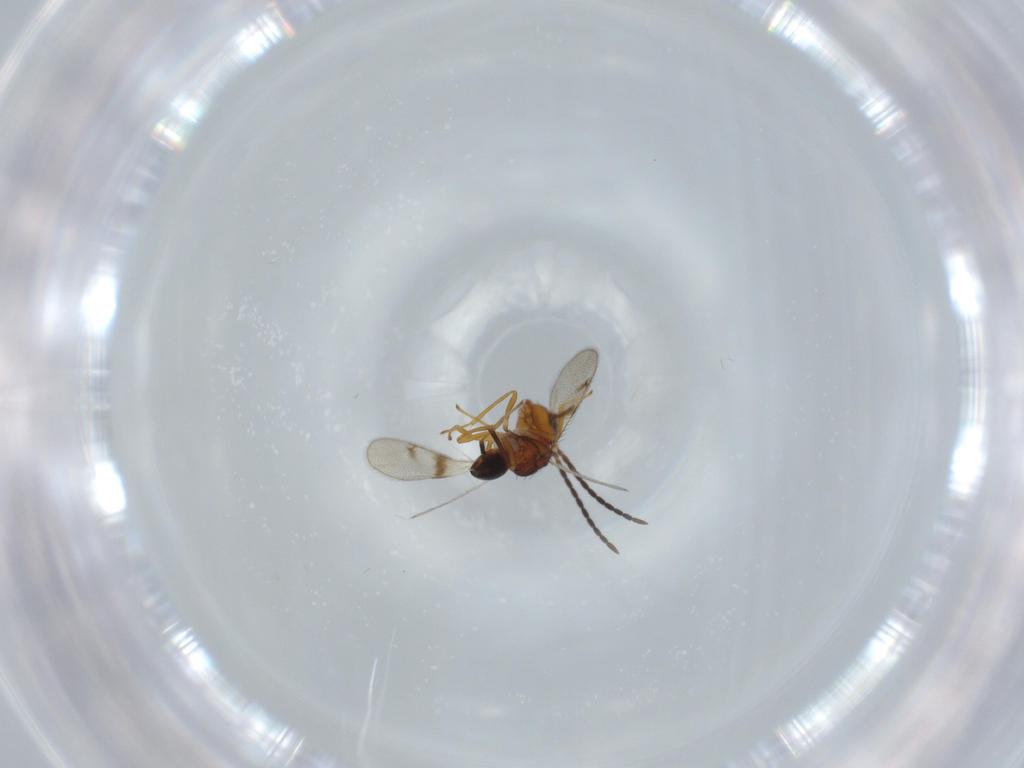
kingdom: Animalia
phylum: Arthropoda
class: Insecta
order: Hymenoptera
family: Bethylidae
